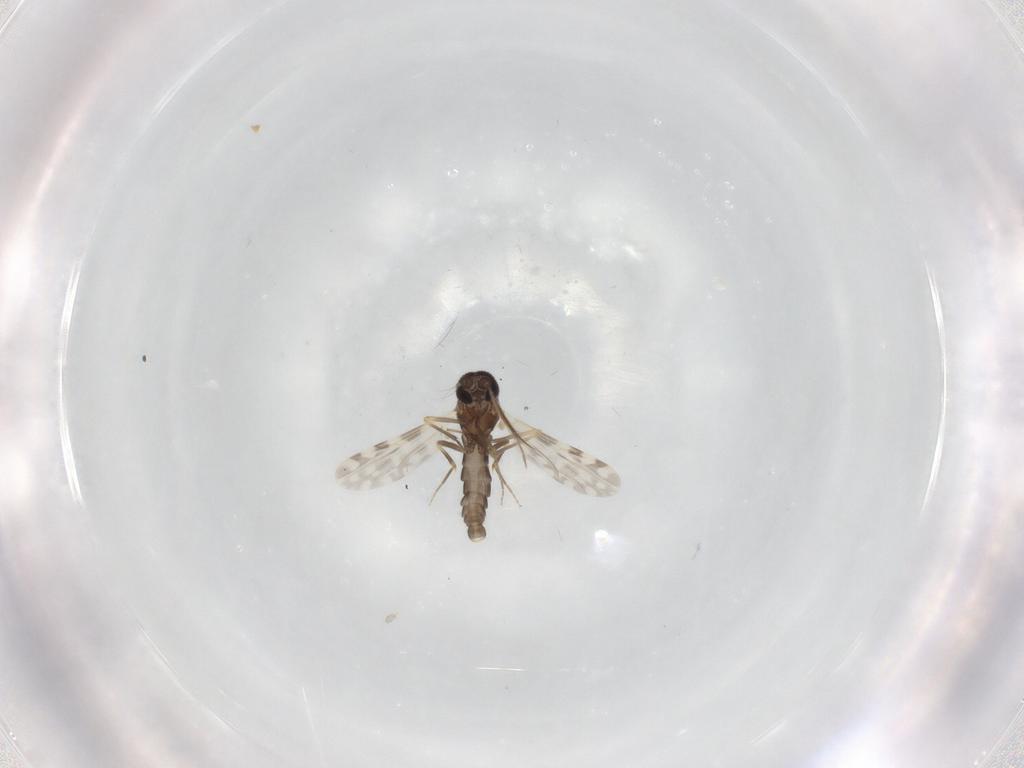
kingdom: Animalia
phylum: Arthropoda
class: Insecta
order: Diptera
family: Ceratopogonidae
